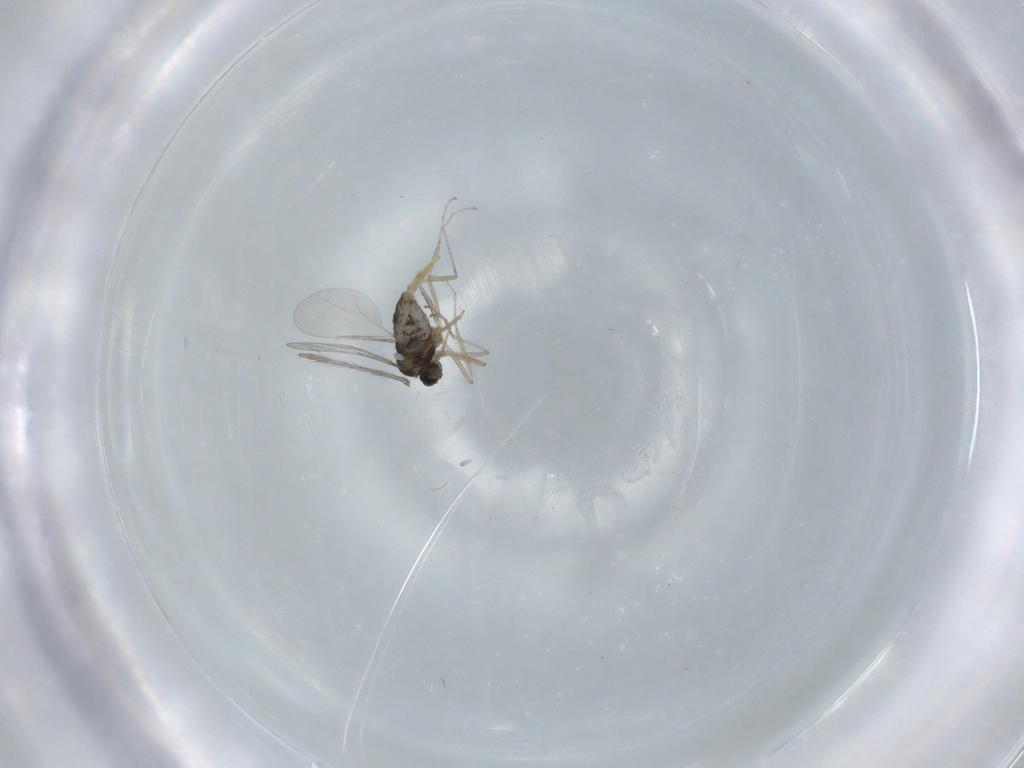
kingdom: Animalia
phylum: Arthropoda
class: Insecta
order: Diptera
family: Cecidomyiidae
